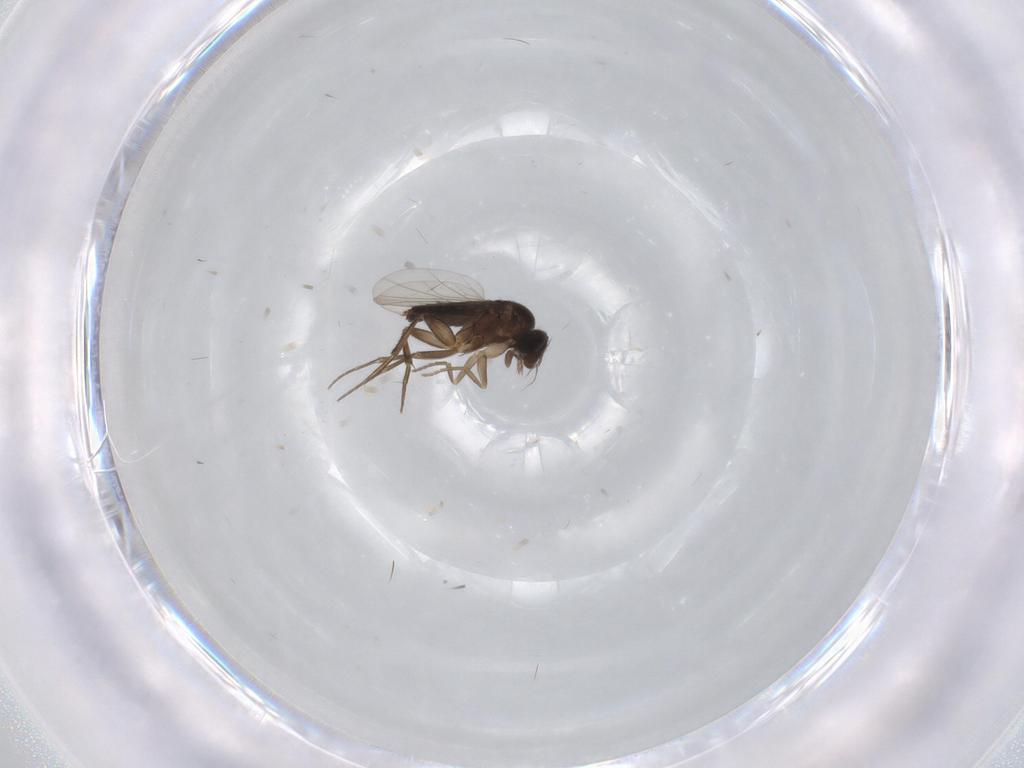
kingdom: Animalia
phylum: Arthropoda
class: Insecta
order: Diptera
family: Phoridae
